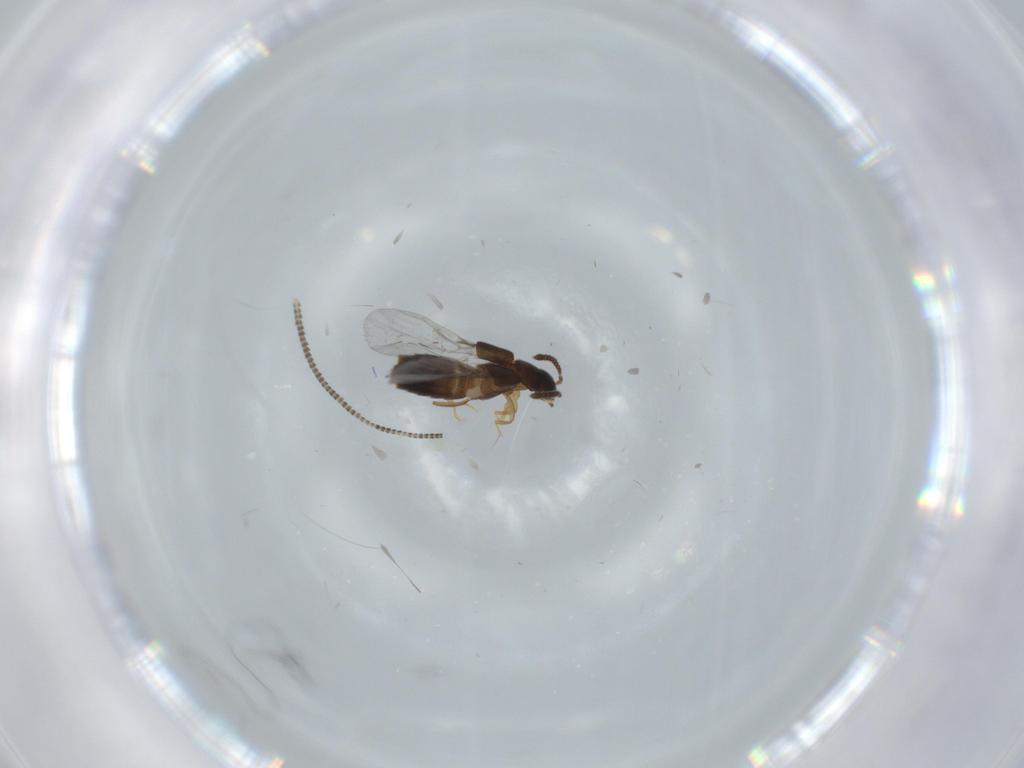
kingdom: Animalia
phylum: Arthropoda
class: Insecta
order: Coleoptera
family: Staphylinidae
